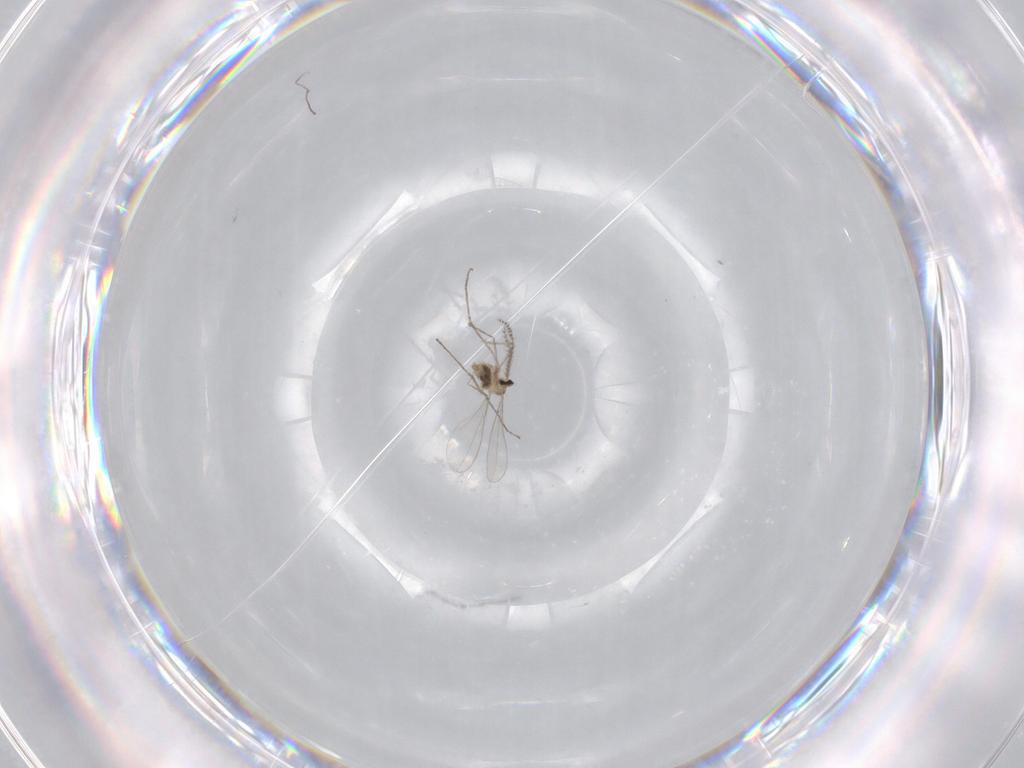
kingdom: Animalia
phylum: Arthropoda
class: Insecta
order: Diptera
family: Cecidomyiidae
